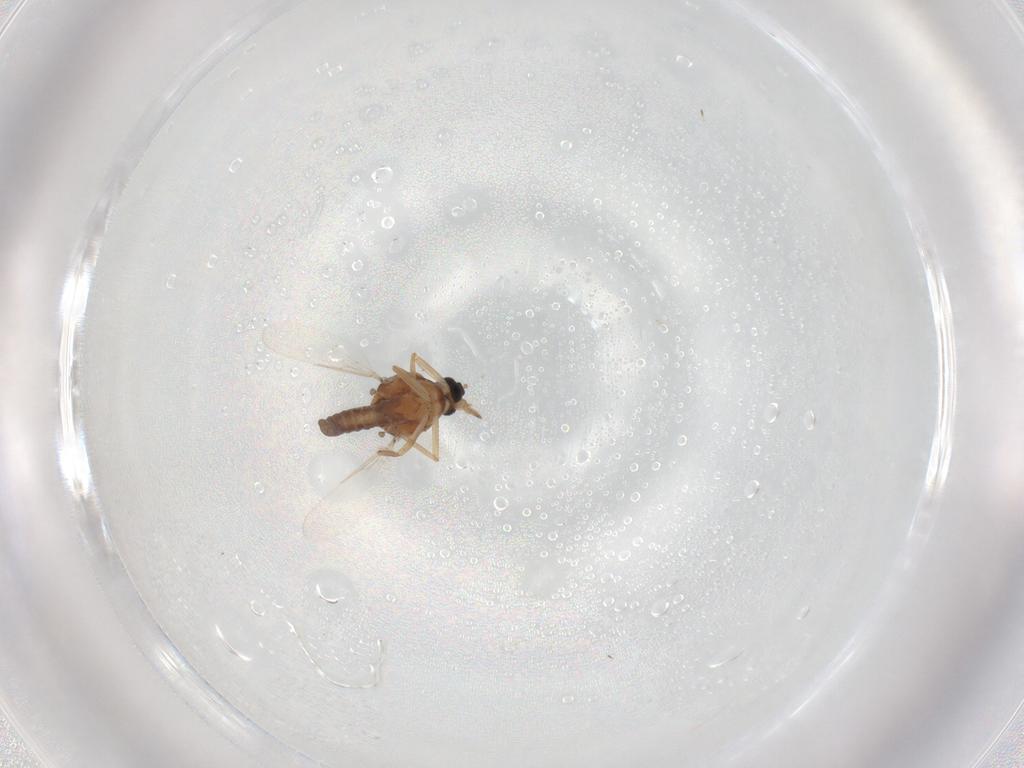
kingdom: Animalia
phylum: Arthropoda
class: Insecta
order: Diptera
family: Ceratopogonidae
